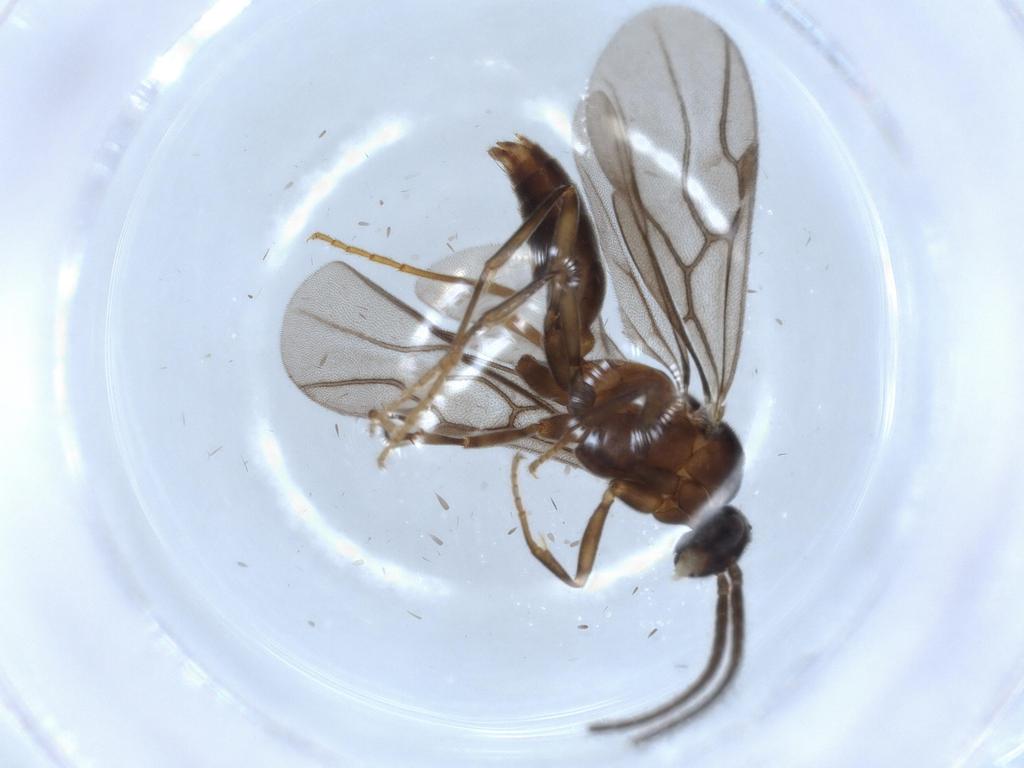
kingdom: Animalia
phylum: Arthropoda
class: Insecta
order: Hymenoptera
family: Formicidae
